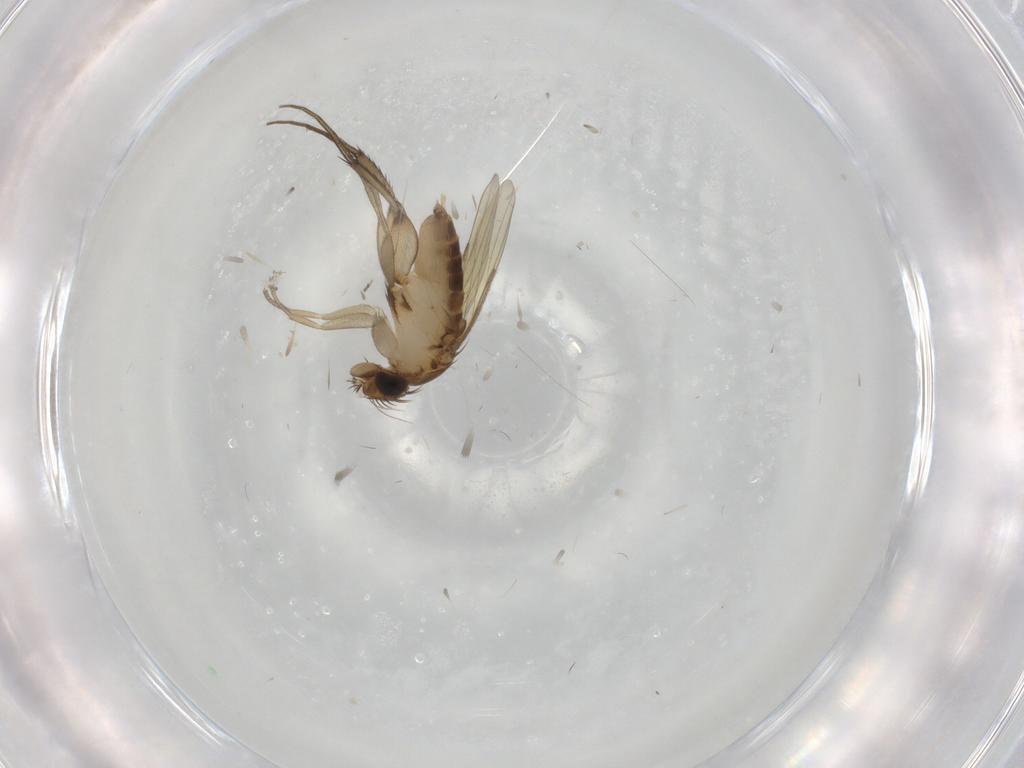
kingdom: Animalia
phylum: Arthropoda
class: Insecta
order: Diptera
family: Phoridae
